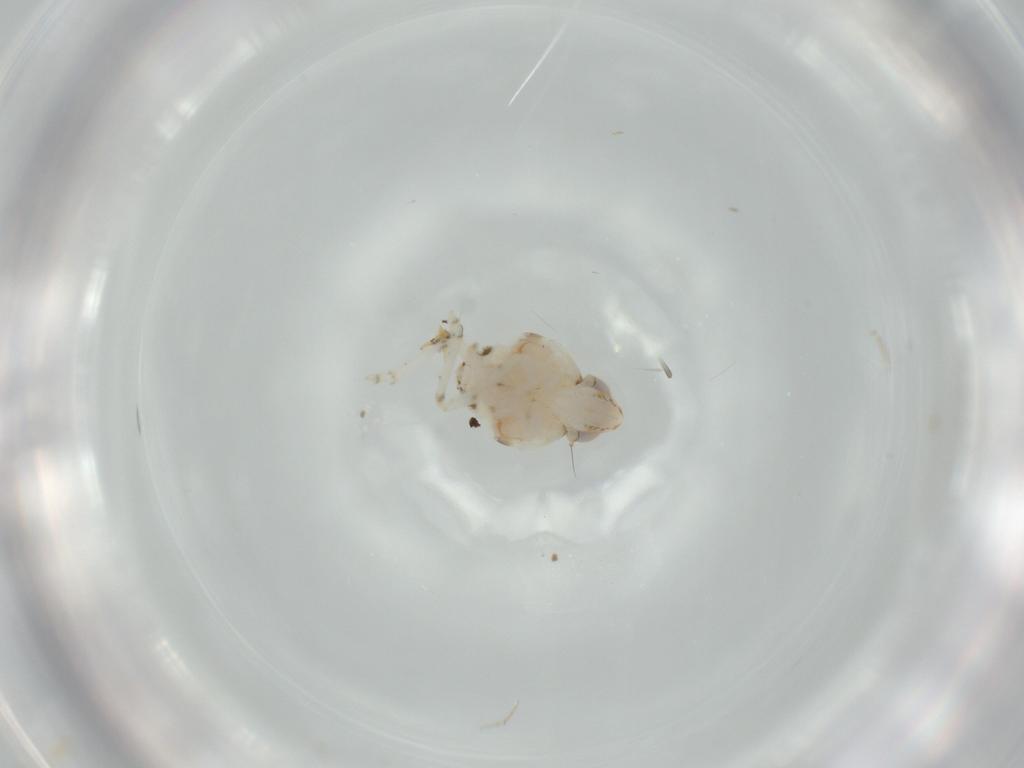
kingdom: Animalia
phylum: Arthropoda
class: Insecta
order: Hemiptera
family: Nogodinidae
